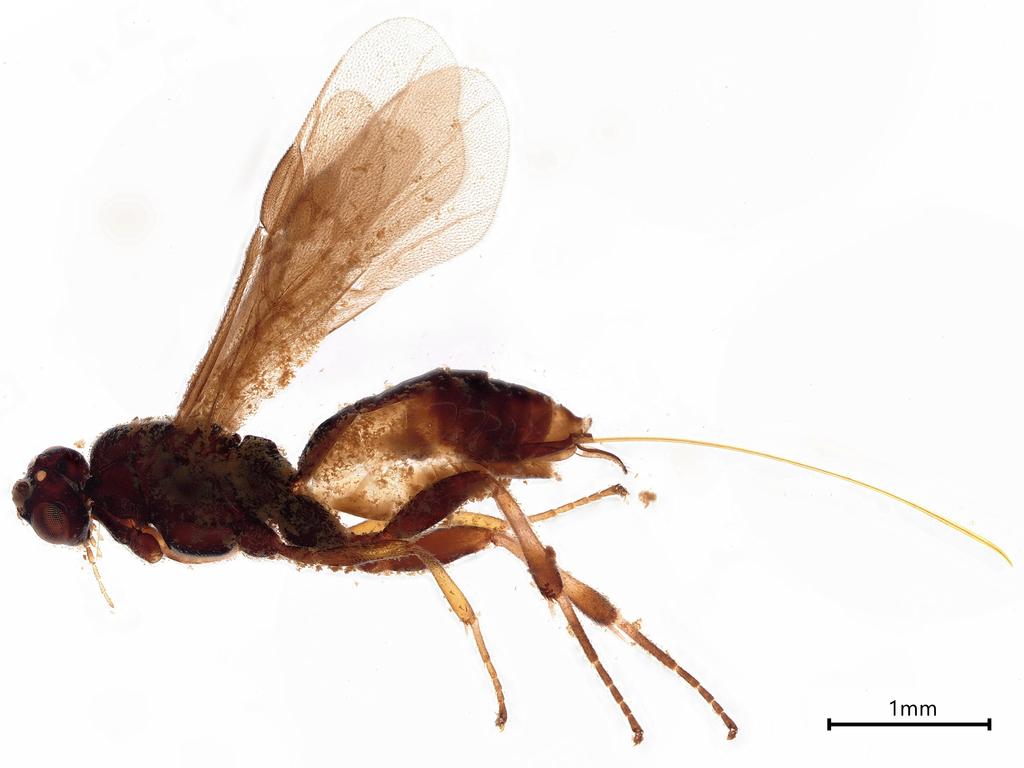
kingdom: Animalia
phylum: Arthropoda
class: Insecta
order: Hymenoptera
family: Braconidae
